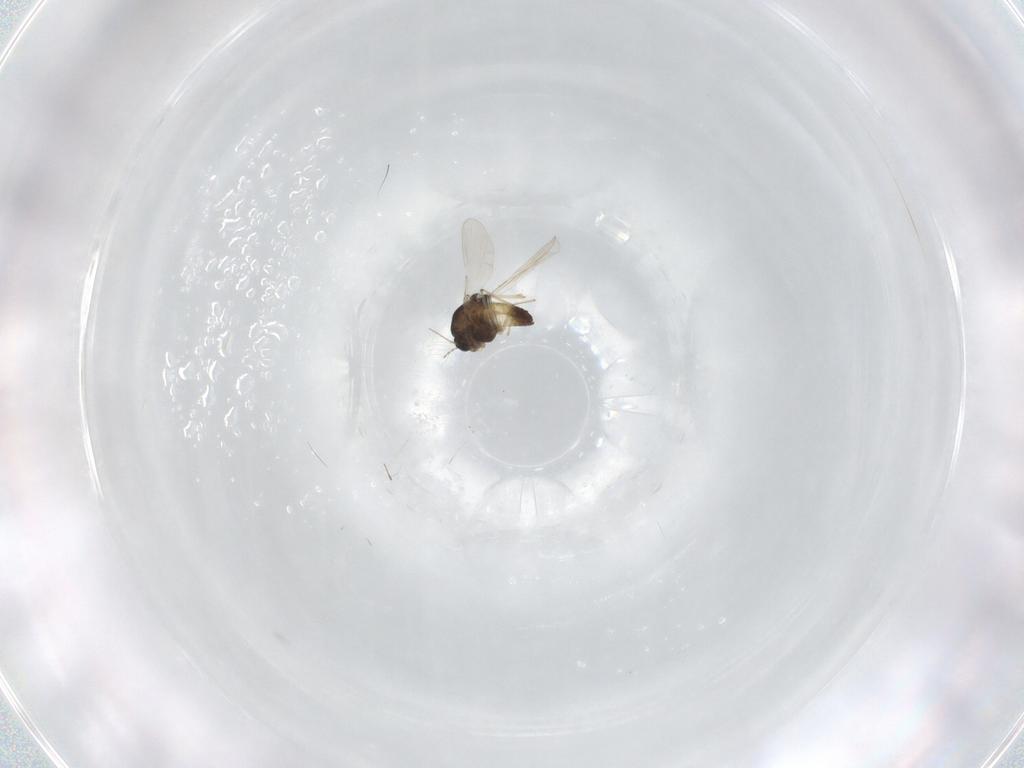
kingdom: Animalia
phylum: Arthropoda
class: Insecta
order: Diptera
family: Chironomidae
